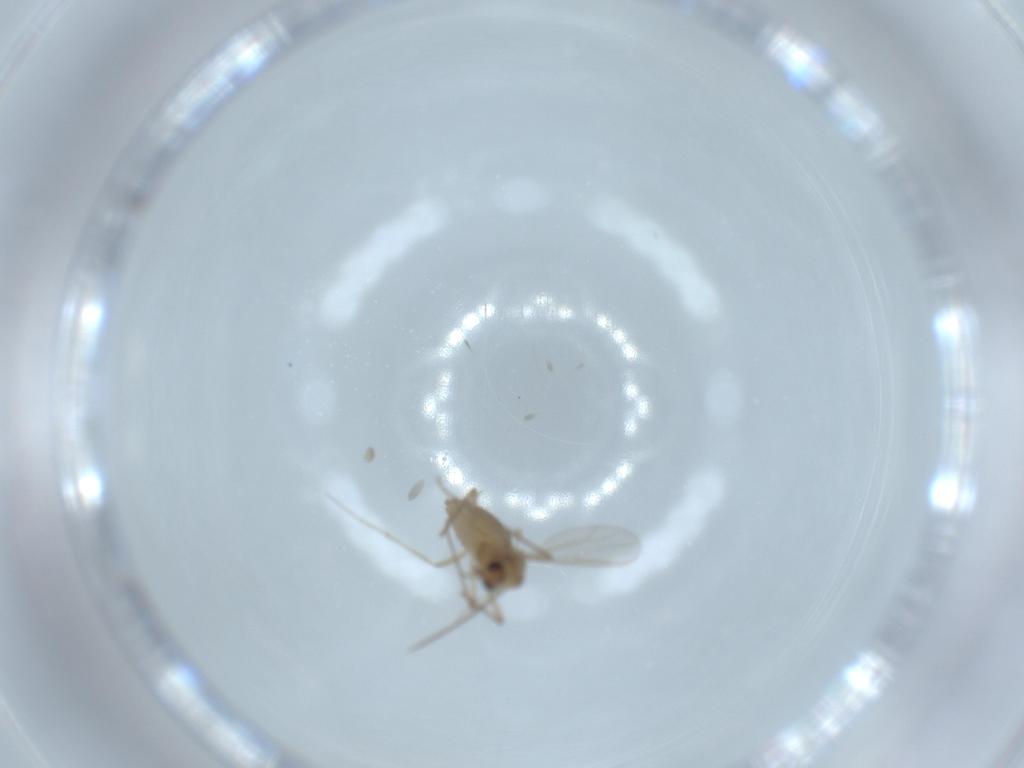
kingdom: Animalia
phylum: Arthropoda
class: Insecta
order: Diptera
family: Chironomidae
